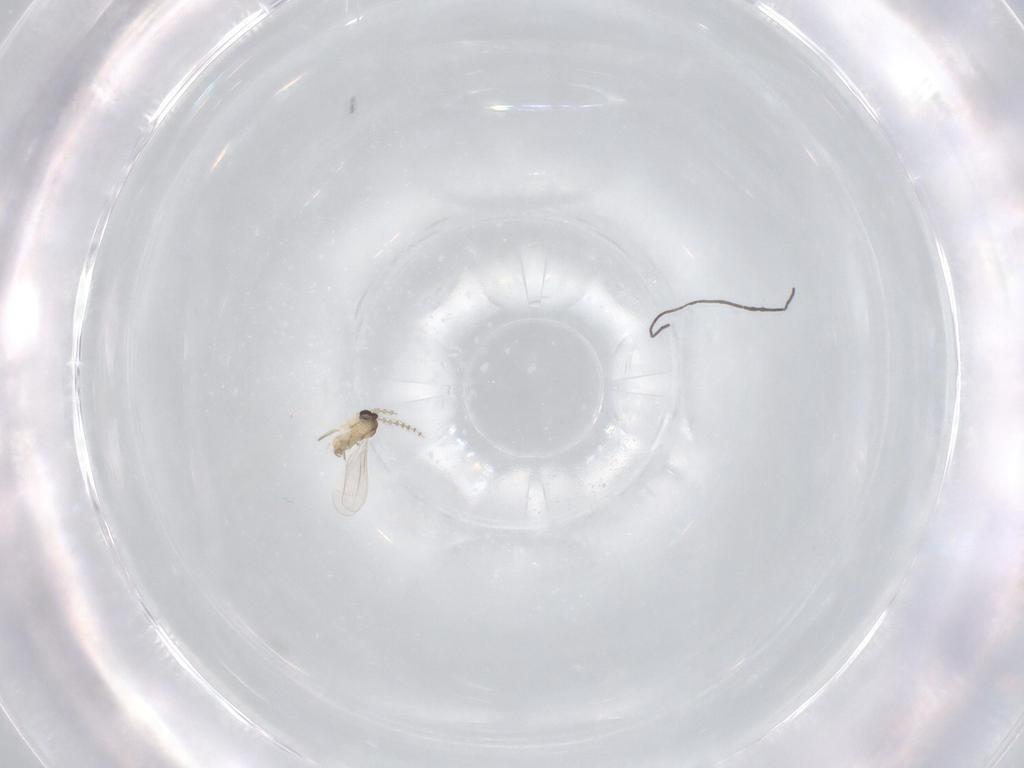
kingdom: Animalia
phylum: Arthropoda
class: Insecta
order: Diptera
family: Cecidomyiidae
